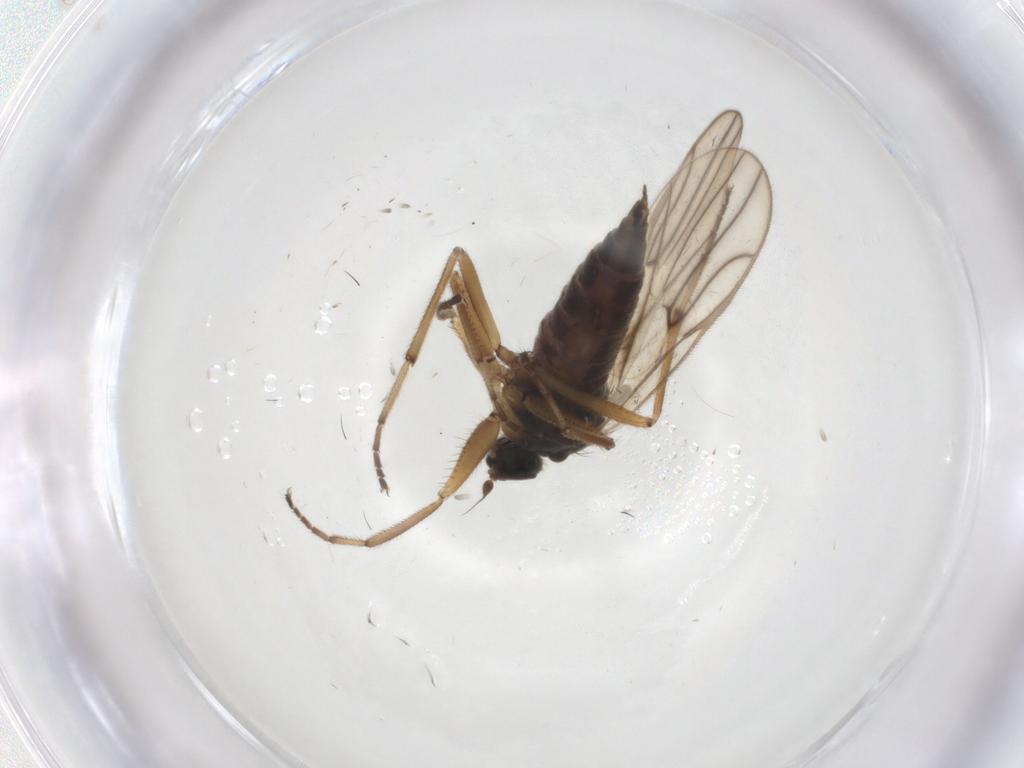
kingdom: Animalia
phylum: Arthropoda
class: Insecta
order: Diptera
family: Hybotidae
